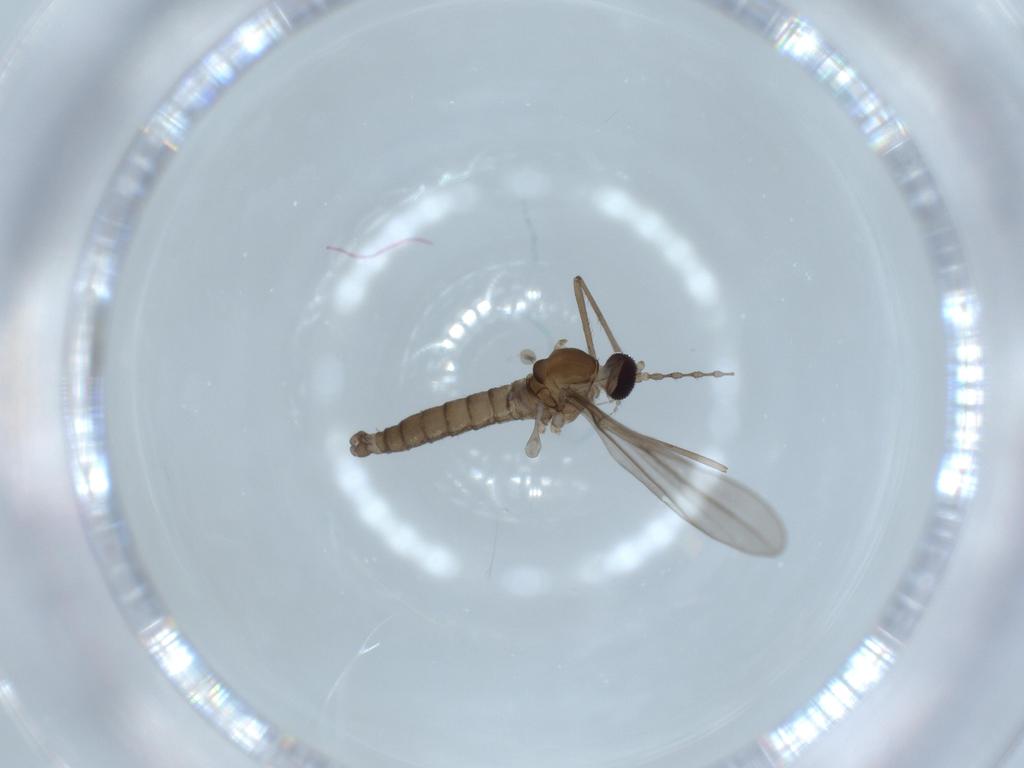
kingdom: Animalia
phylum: Arthropoda
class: Insecta
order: Diptera
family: Cecidomyiidae
